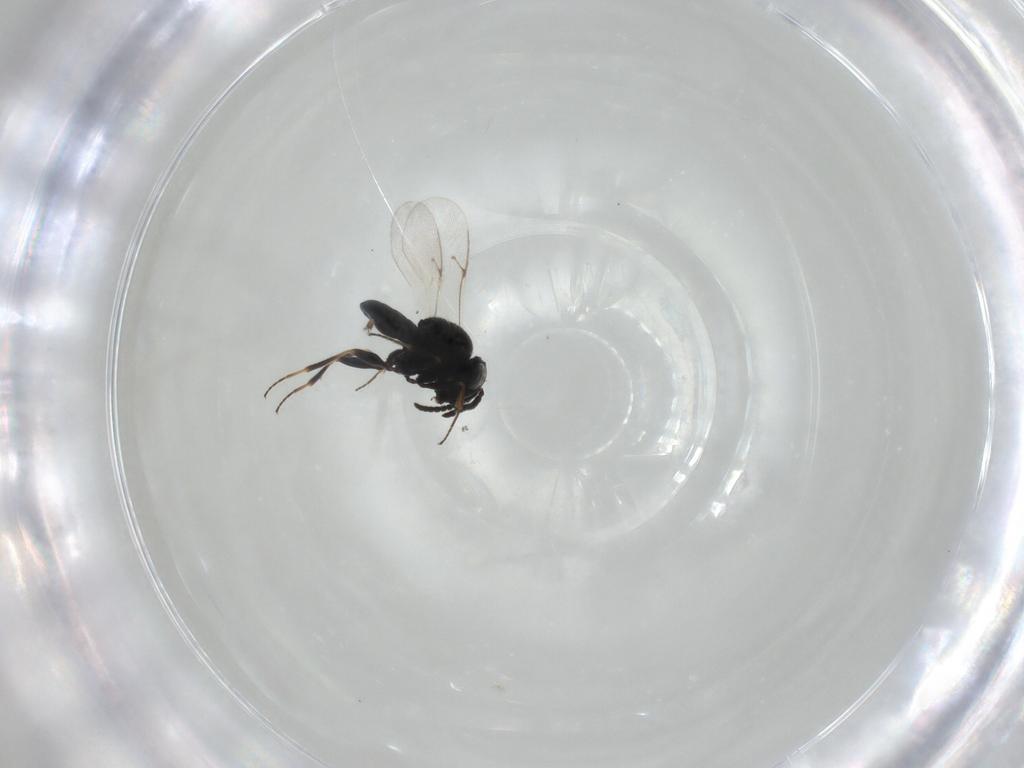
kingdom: Animalia
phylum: Arthropoda
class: Insecta
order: Hymenoptera
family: Scelionidae
